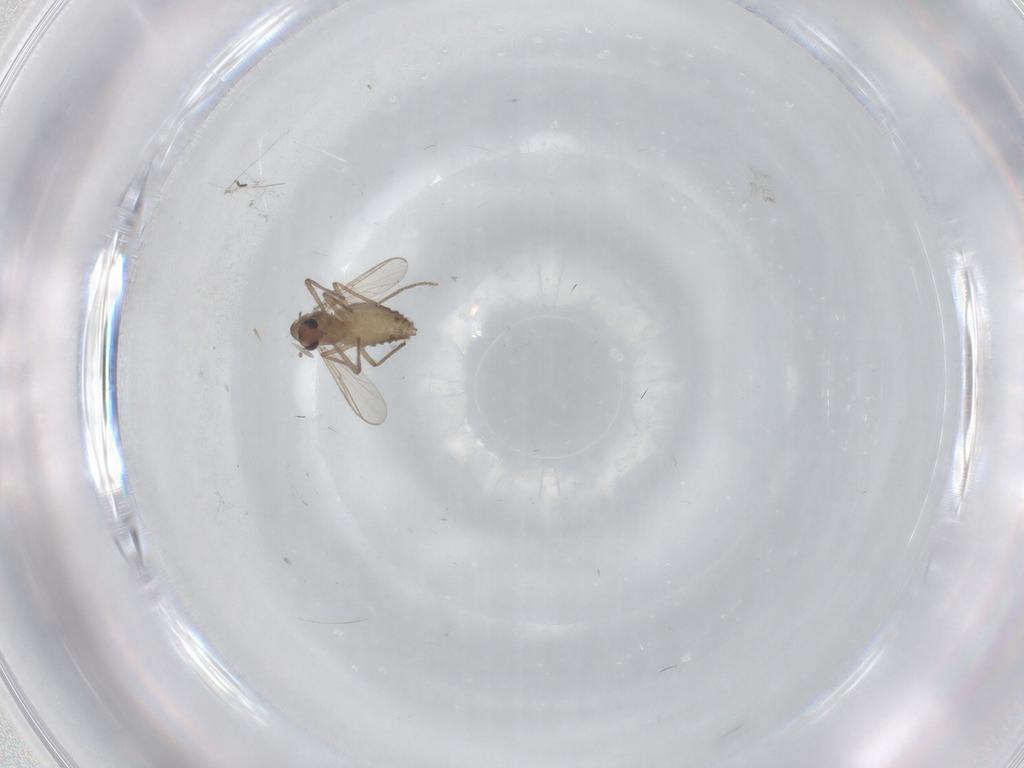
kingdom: Animalia
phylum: Arthropoda
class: Insecta
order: Diptera
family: Chironomidae
